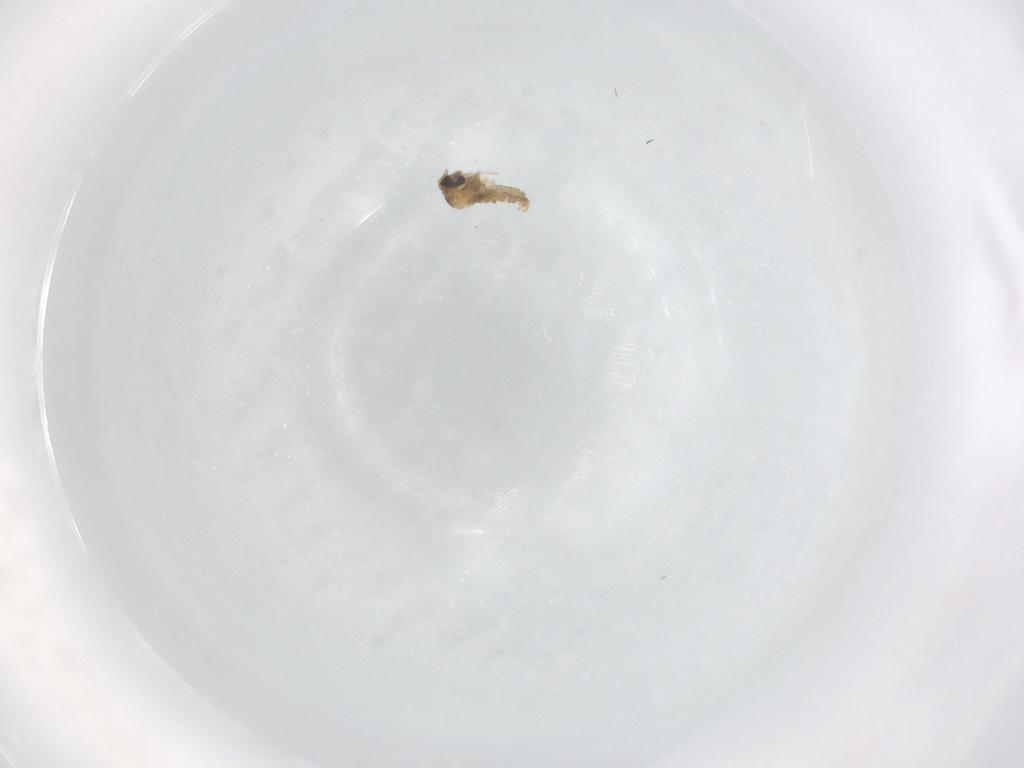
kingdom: Animalia
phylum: Arthropoda
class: Insecta
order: Diptera
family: Cecidomyiidae
